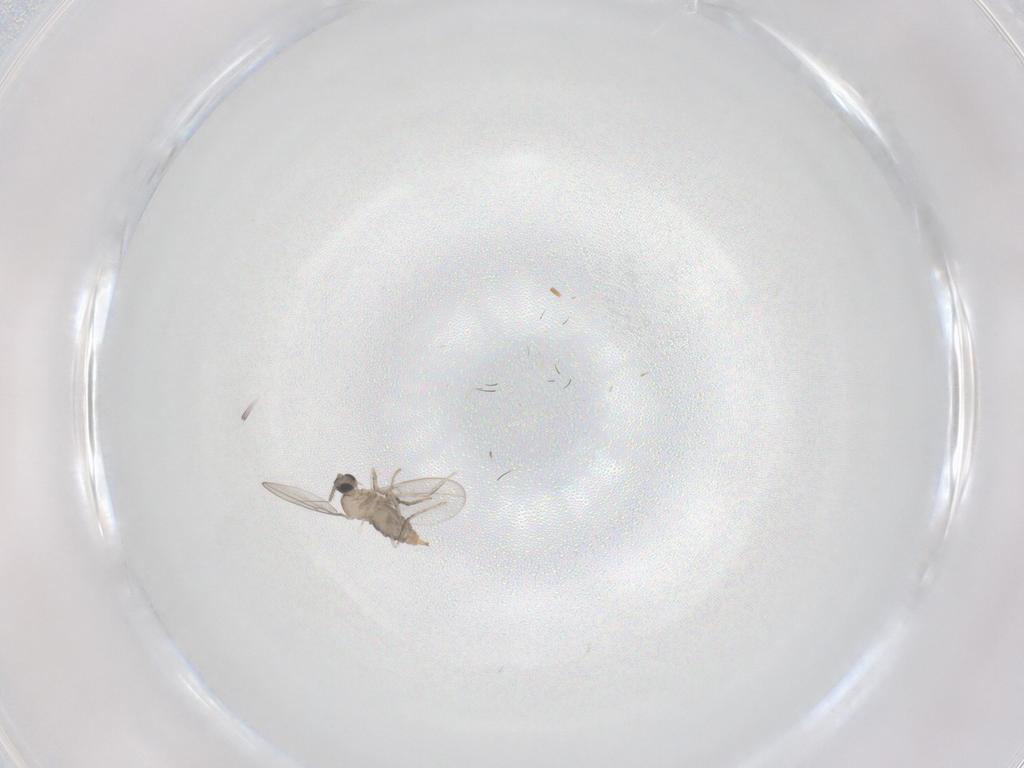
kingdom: Animalia
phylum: Arthropoda
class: Insecta
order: Diptera
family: Cecidomyiidae
